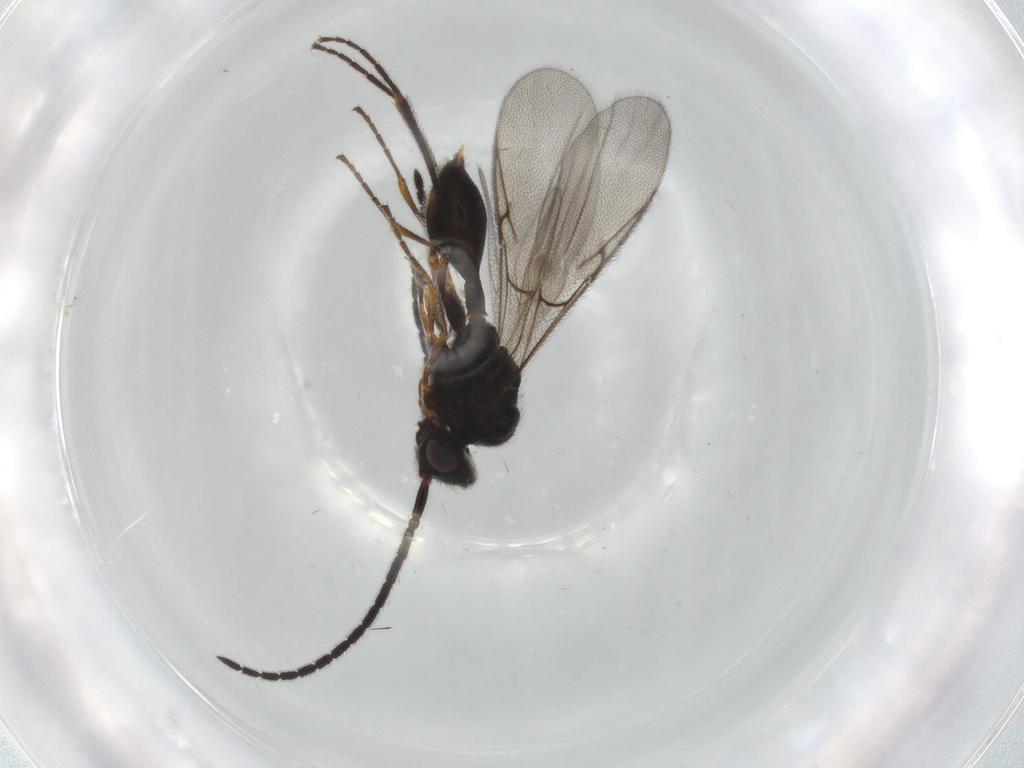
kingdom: Animalia
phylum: Arthropoda
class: Insecta
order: Hymenoptera
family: Diapriidae
